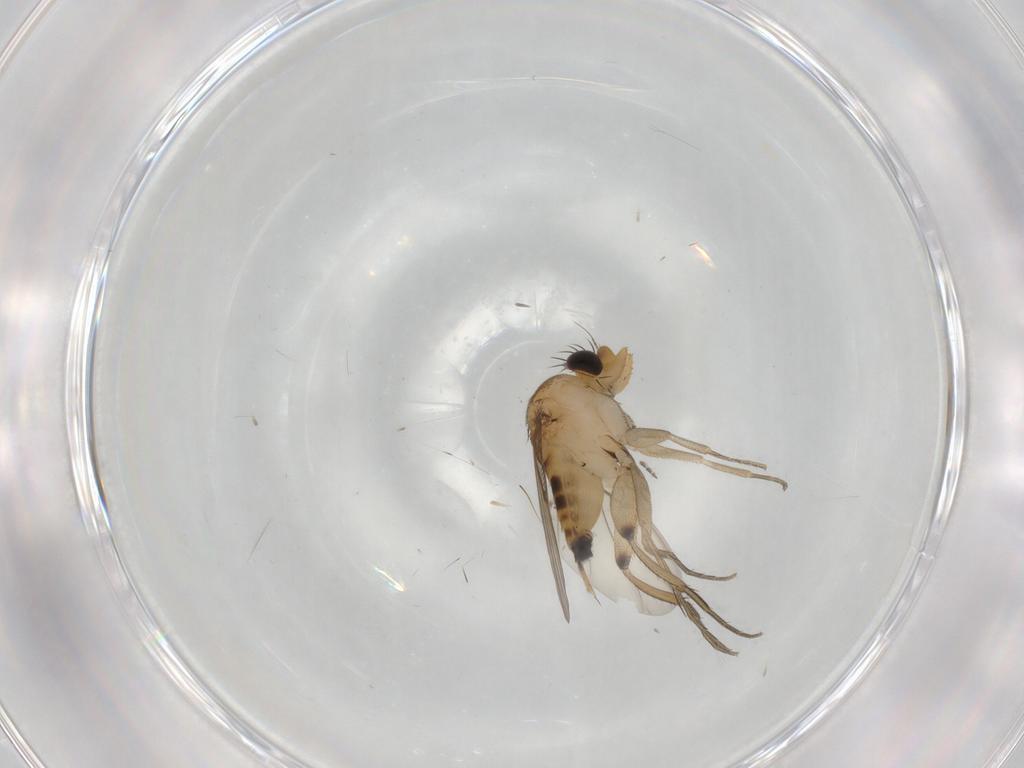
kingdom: Animalia
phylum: Arthropoda
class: Insecta
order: Diptera
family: Phoridae
